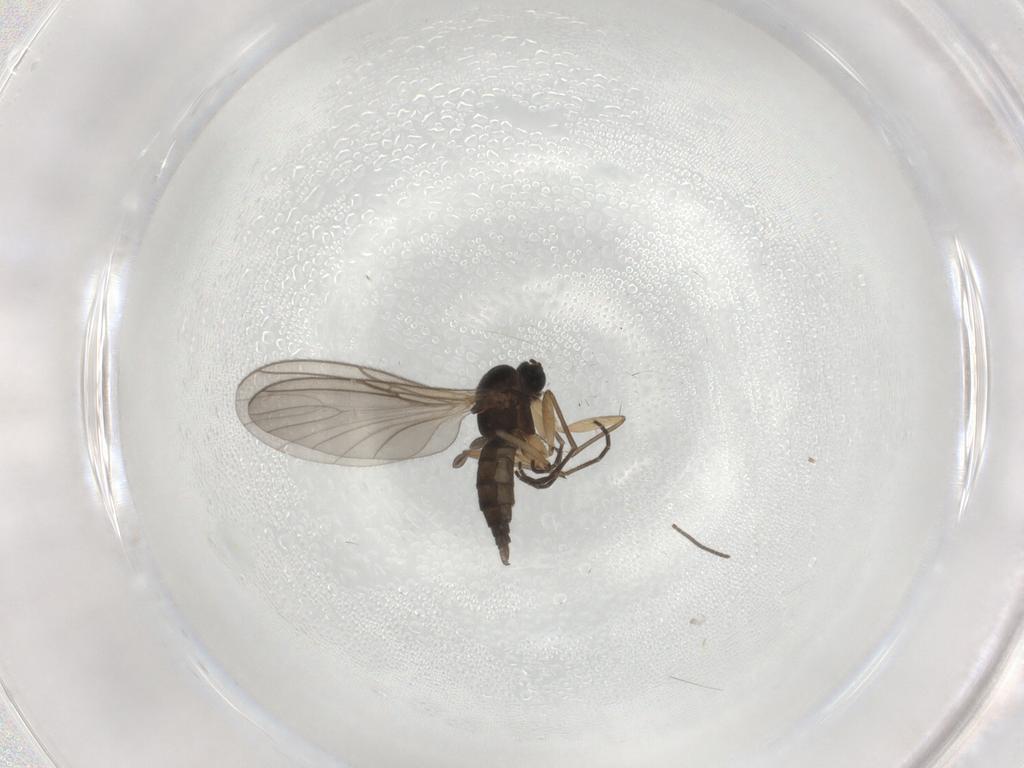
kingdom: Animalia
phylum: Arthropoda
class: Insecta
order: Diptera
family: Sciaridae
